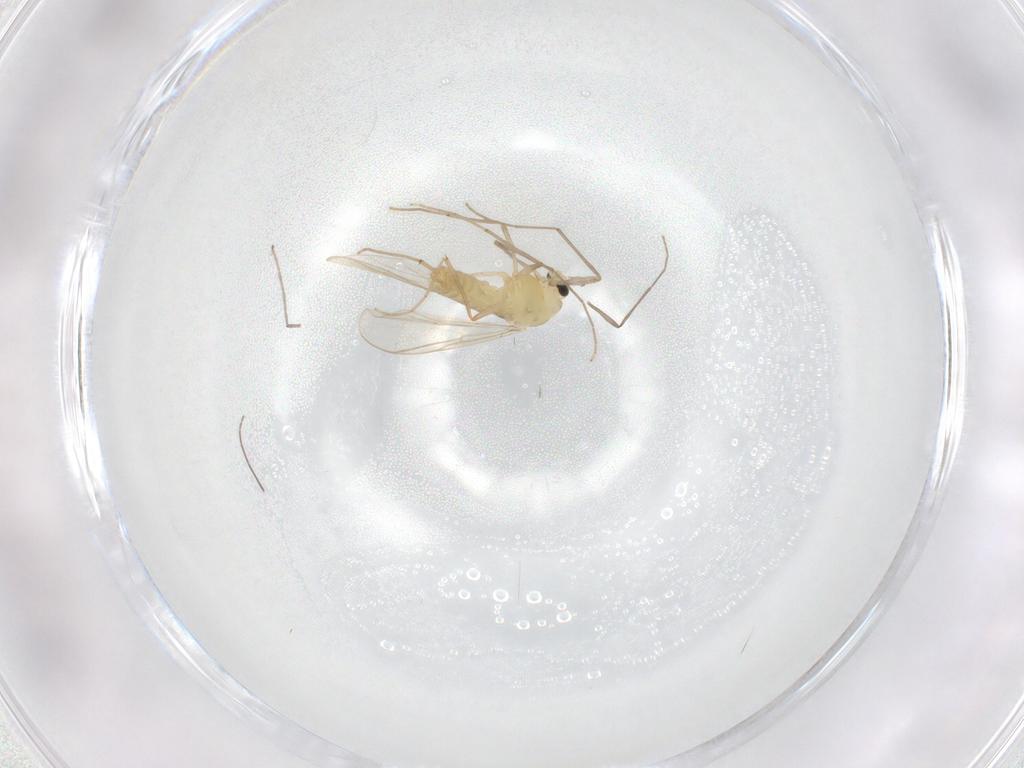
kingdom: Animalia
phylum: Arthropoda
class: Insecta
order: Diptera
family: Chironomidae
